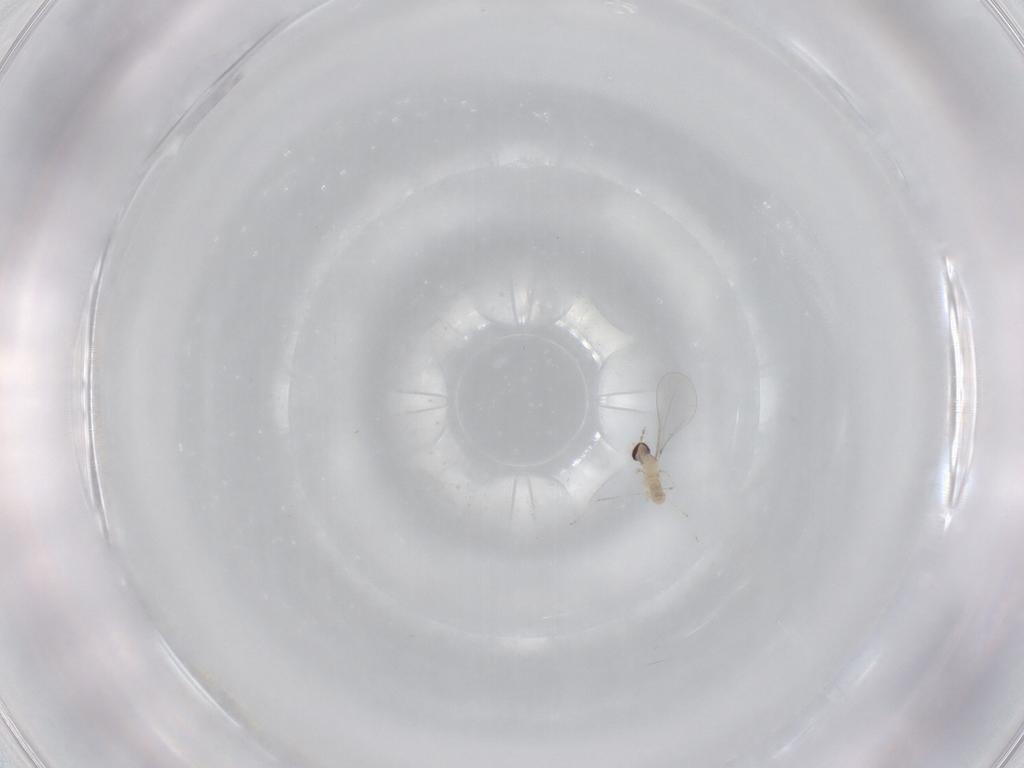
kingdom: Animalia
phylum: Arthropoda
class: Insecta
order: Diptera
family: Cecidomyiidae
